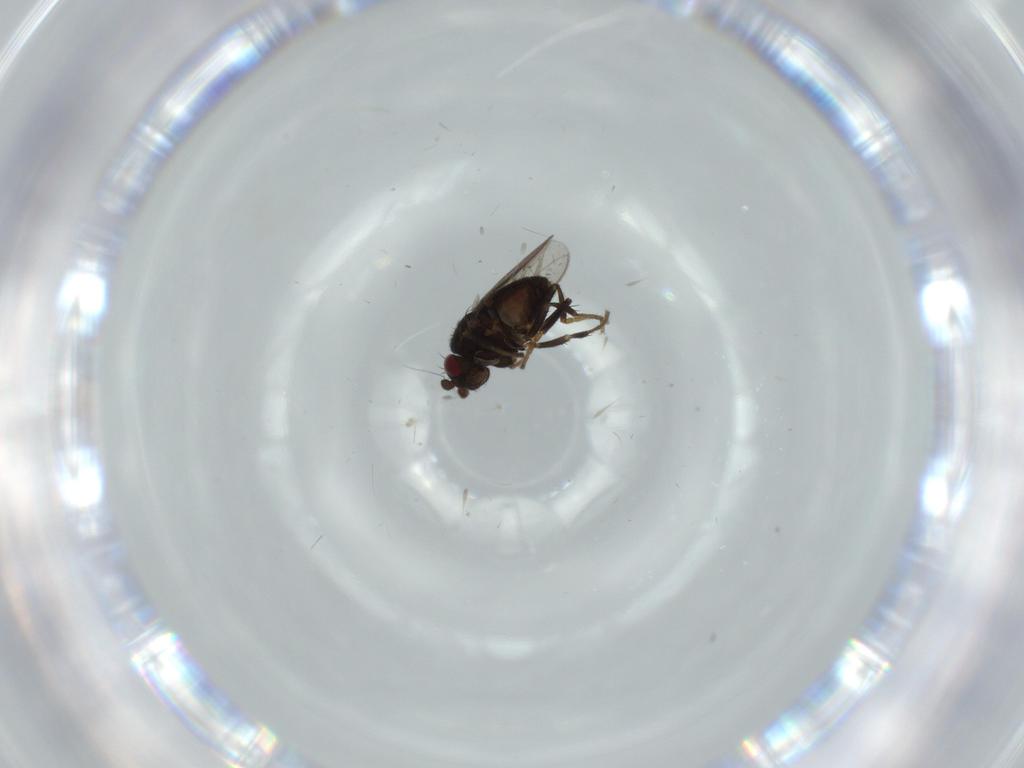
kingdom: Animalia
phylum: Arthropoda
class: Insecta
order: Diptera
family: Sphaeroceridae
